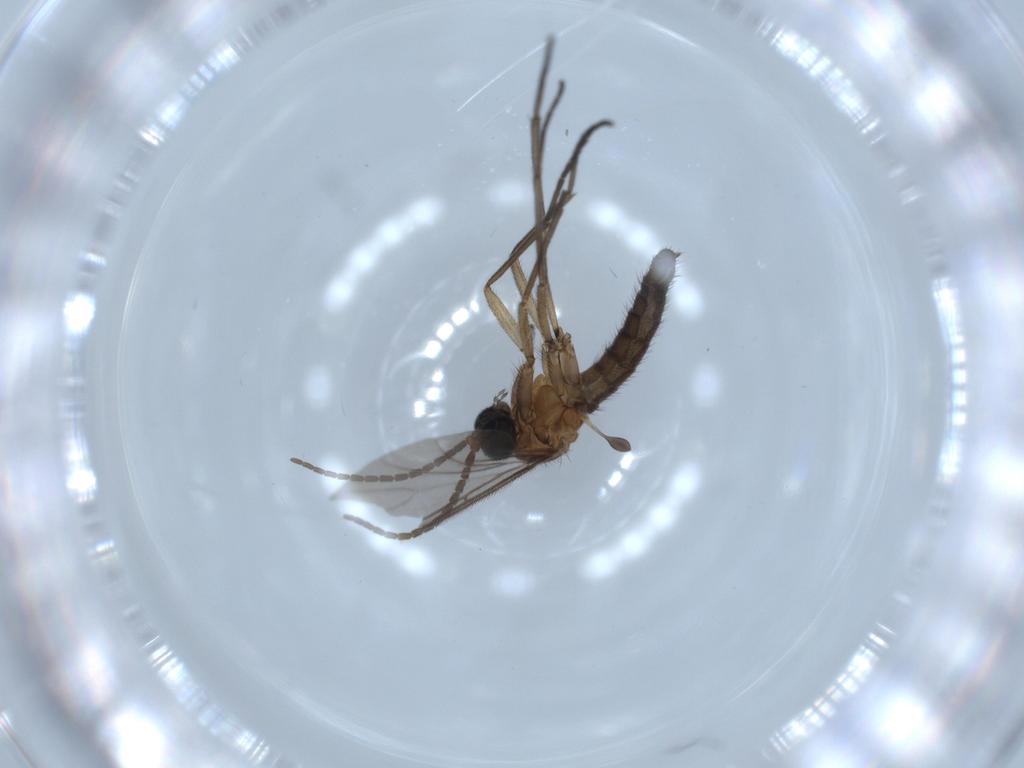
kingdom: Animalia
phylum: Arthropoda
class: Insecta
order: Diptera
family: Sciaridae
